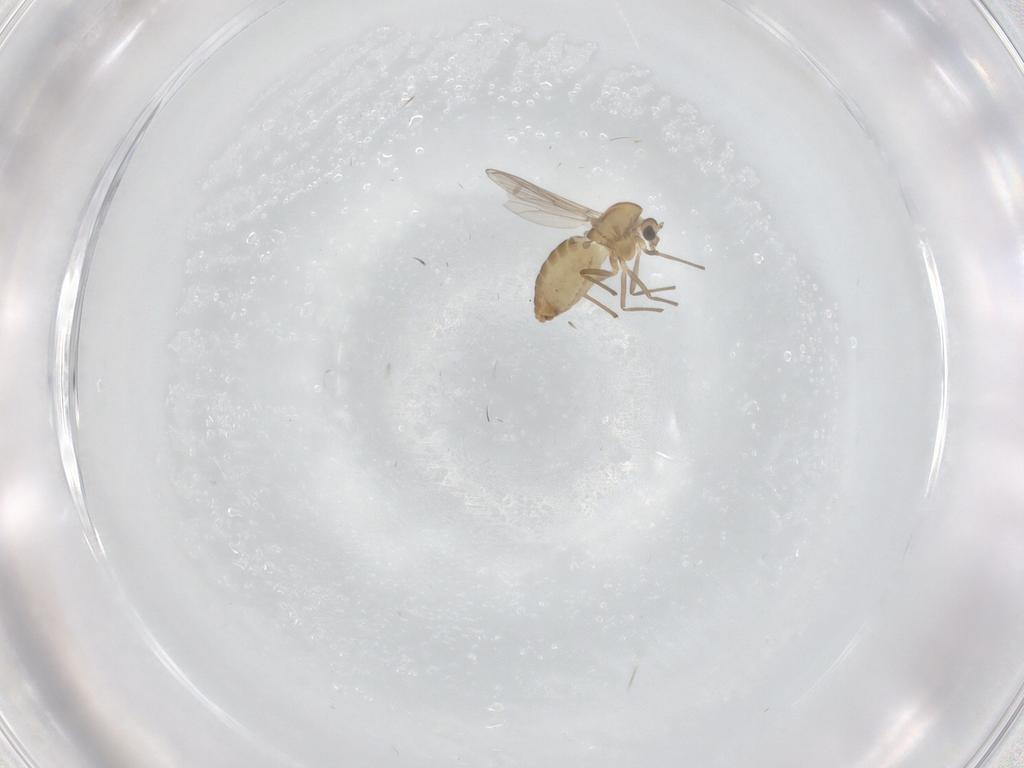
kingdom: Animalia
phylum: Arthropoda
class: Insecta
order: Diptera
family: Chironomidae
